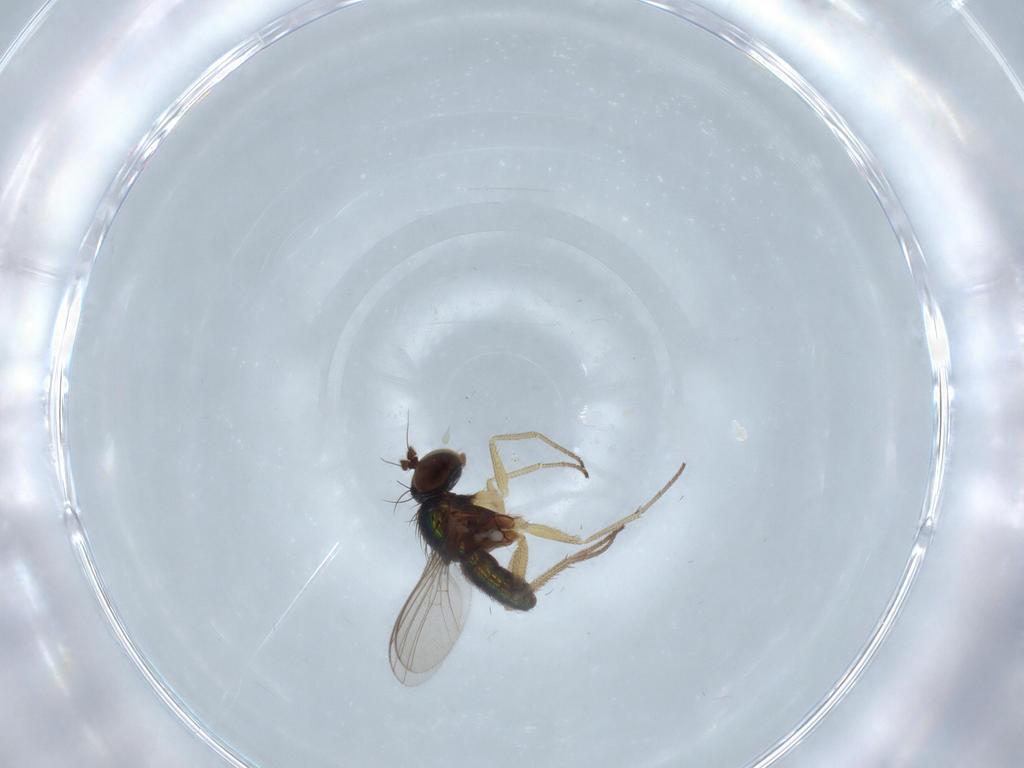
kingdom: Animalia
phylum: Arthropoda
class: Insecta
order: Diptera
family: Dolichopodidae
